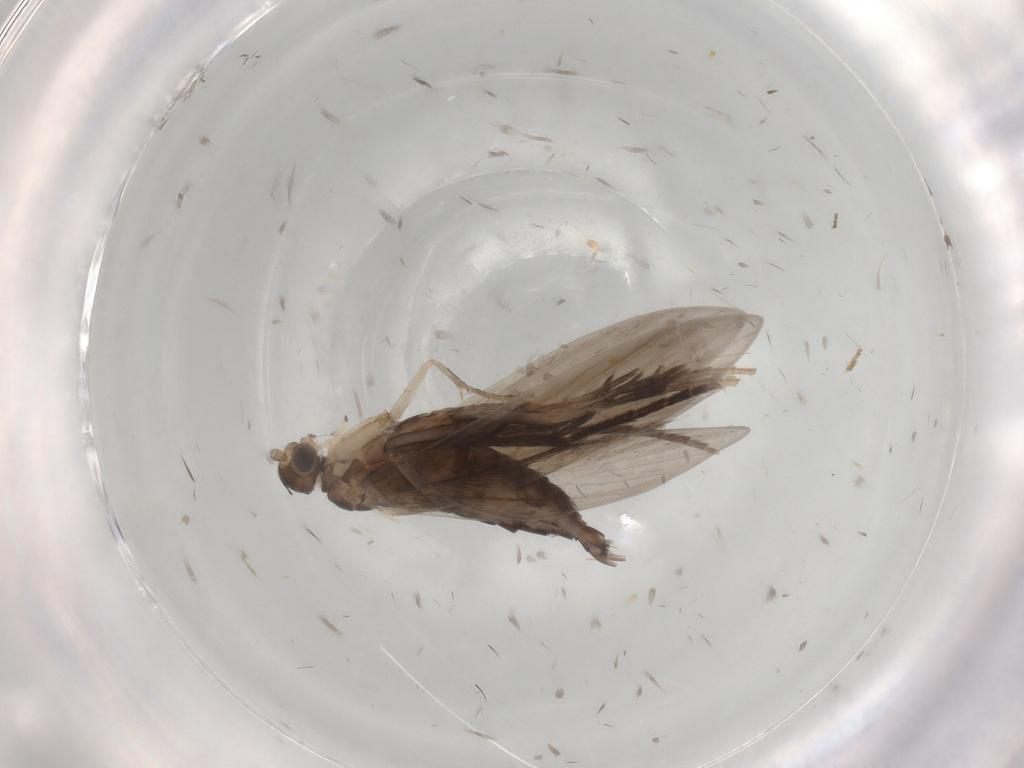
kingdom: Animalia
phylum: Arthropoda
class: Insecta
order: Trichoptera
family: Xiphocentronidae
